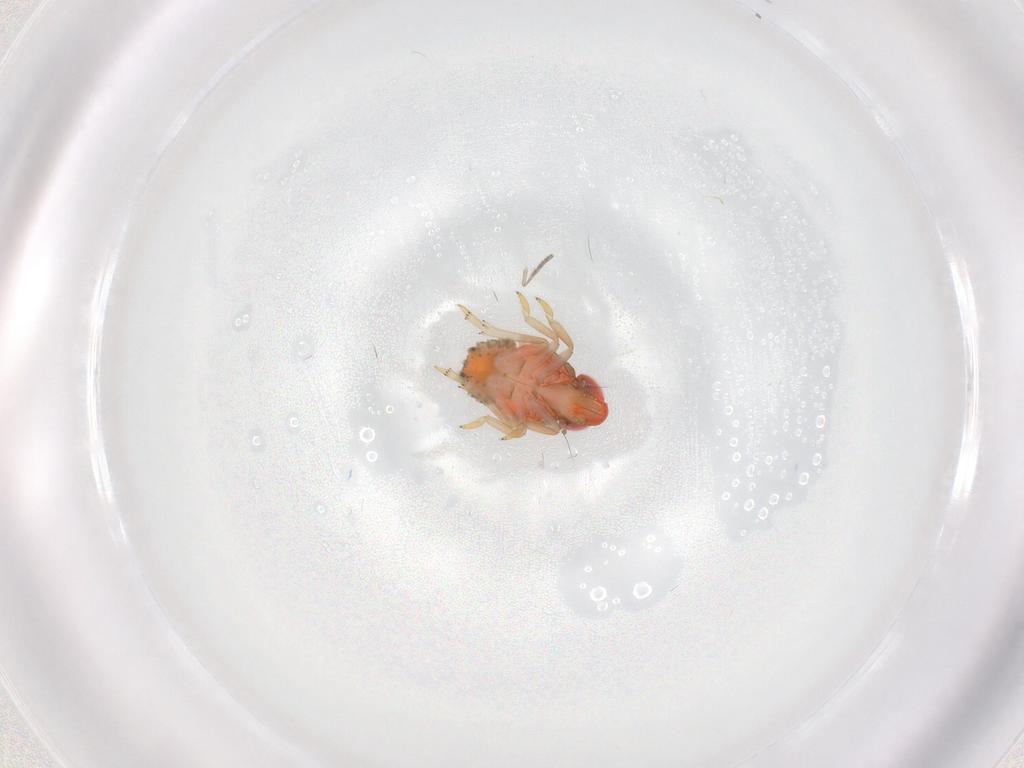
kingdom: Animalia
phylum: Arthropoda
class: Insecta
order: Hemiptera
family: Issidae
